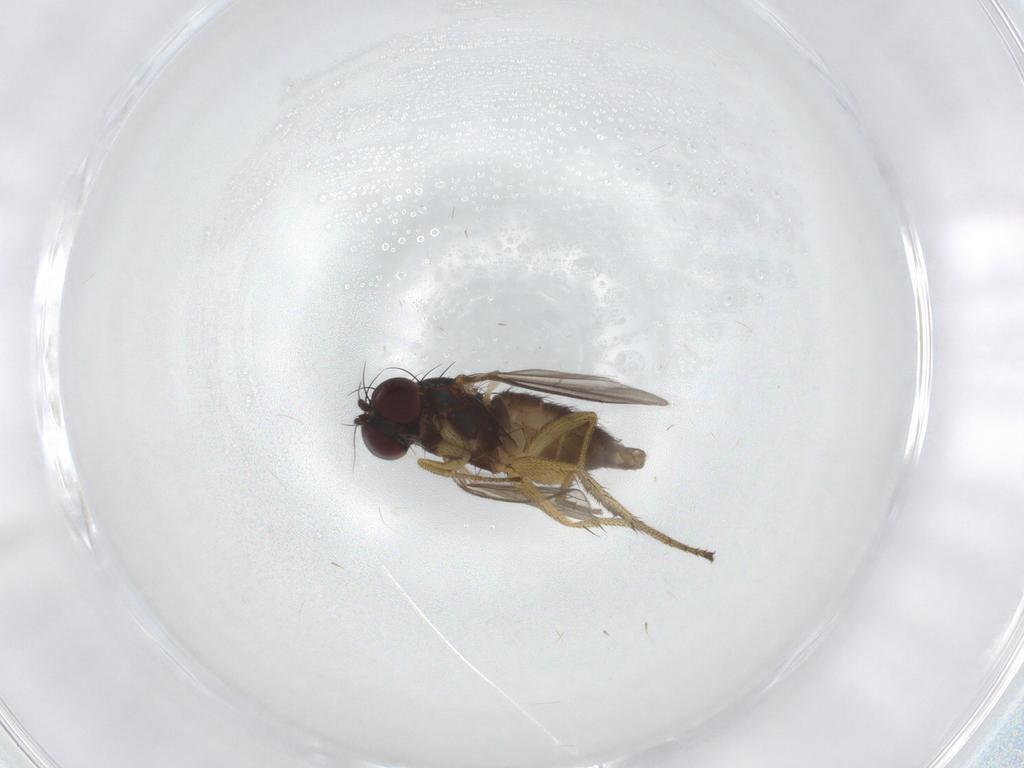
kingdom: Animalia
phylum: Arthropoda
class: Insecta
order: Diptera
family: Dolichopodidae
